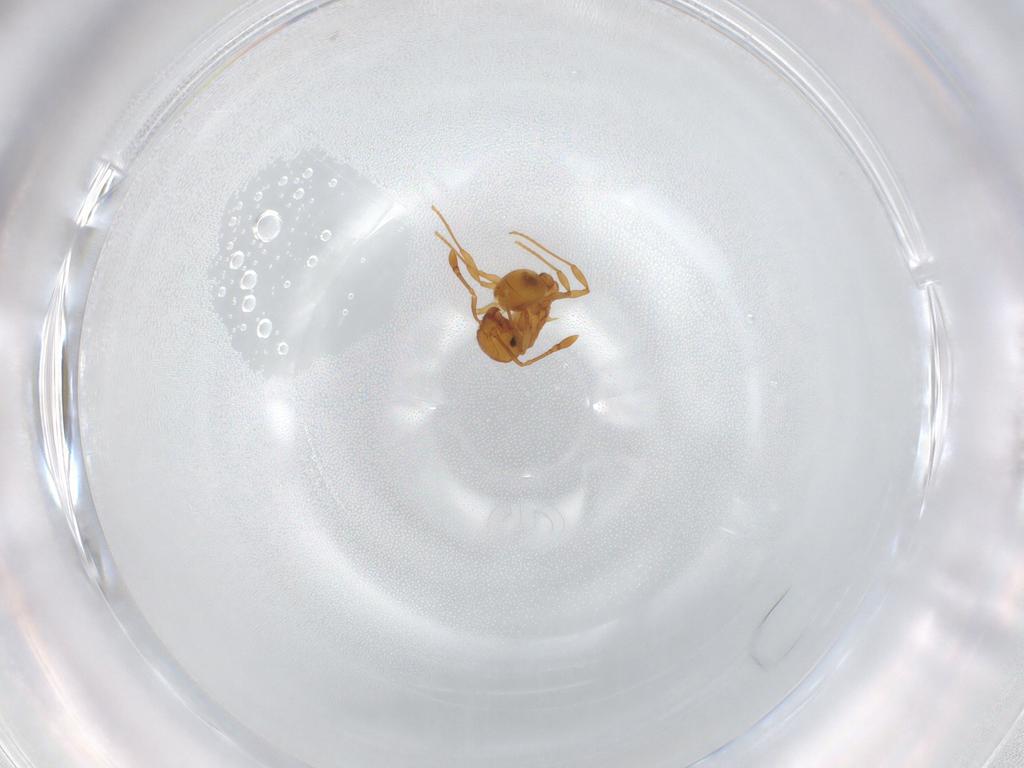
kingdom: Animalia
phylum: Arthropoda
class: Insecta
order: Hymenoptera
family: Formicidae
